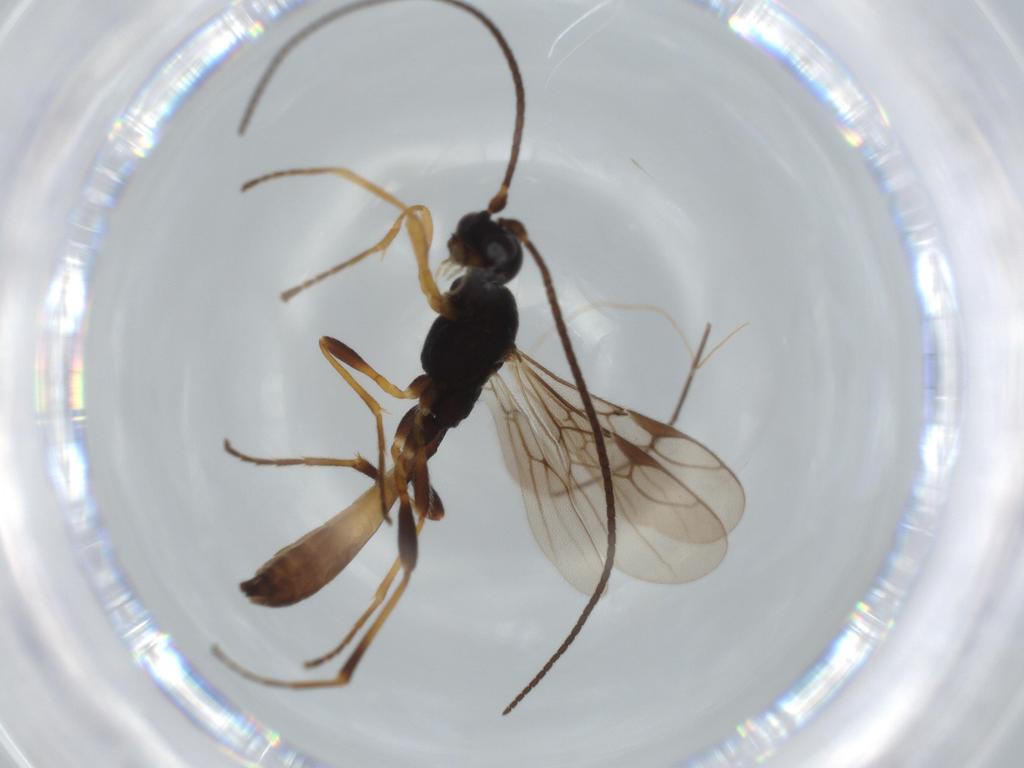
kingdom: Animalia
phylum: Arthropoda
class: Insecta
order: Hymenoptera
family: Braconidae
